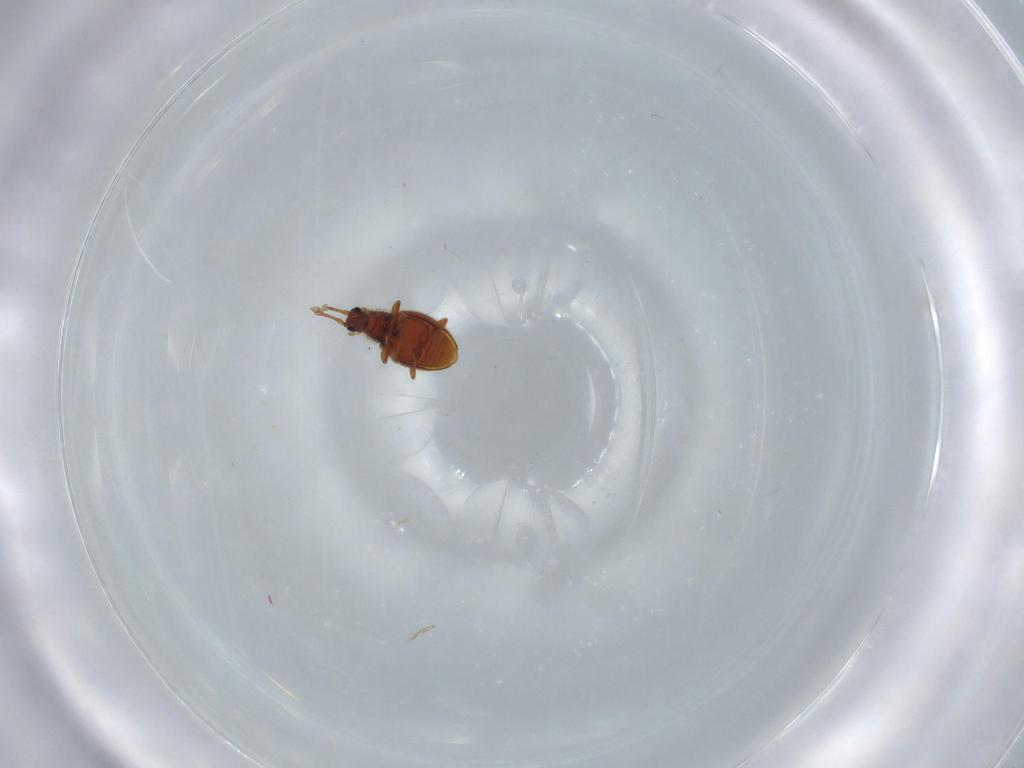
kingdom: Animalia
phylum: Arthropoda
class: Insecta
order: Coleoptera
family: Staphylinidae
